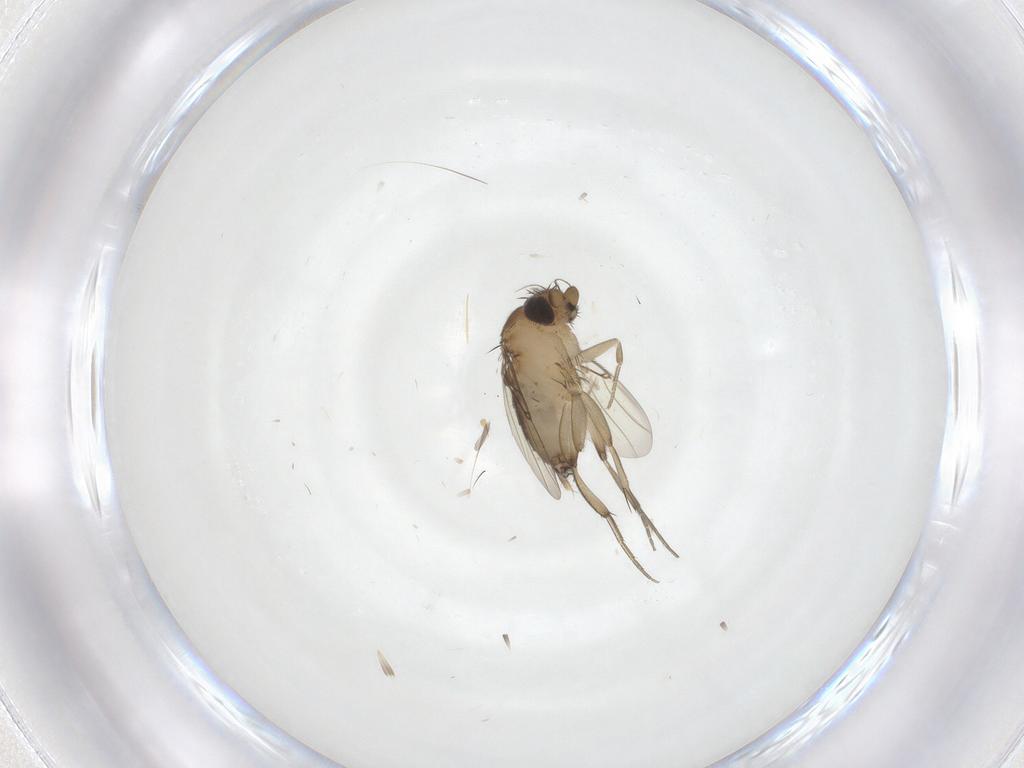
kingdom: Animalia
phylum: Arthropoda
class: Insecta
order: Diptera
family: Phoridae
